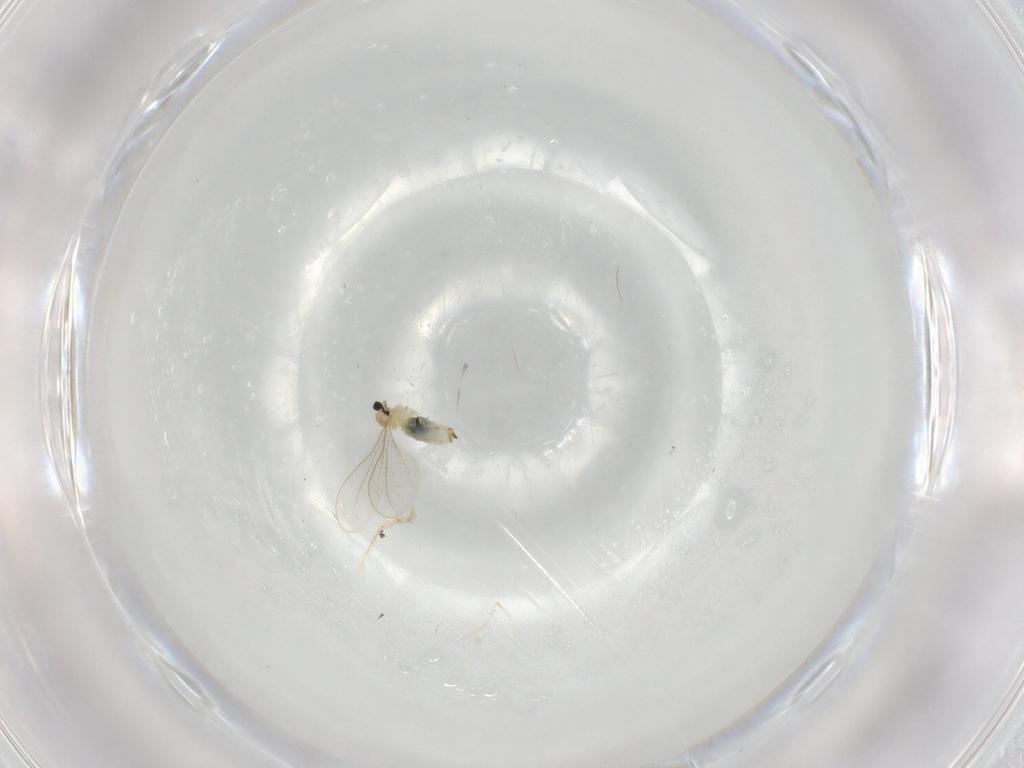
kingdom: Animalia
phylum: Arthropoda
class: Insecta
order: Diptera
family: Cecidomyiidae
